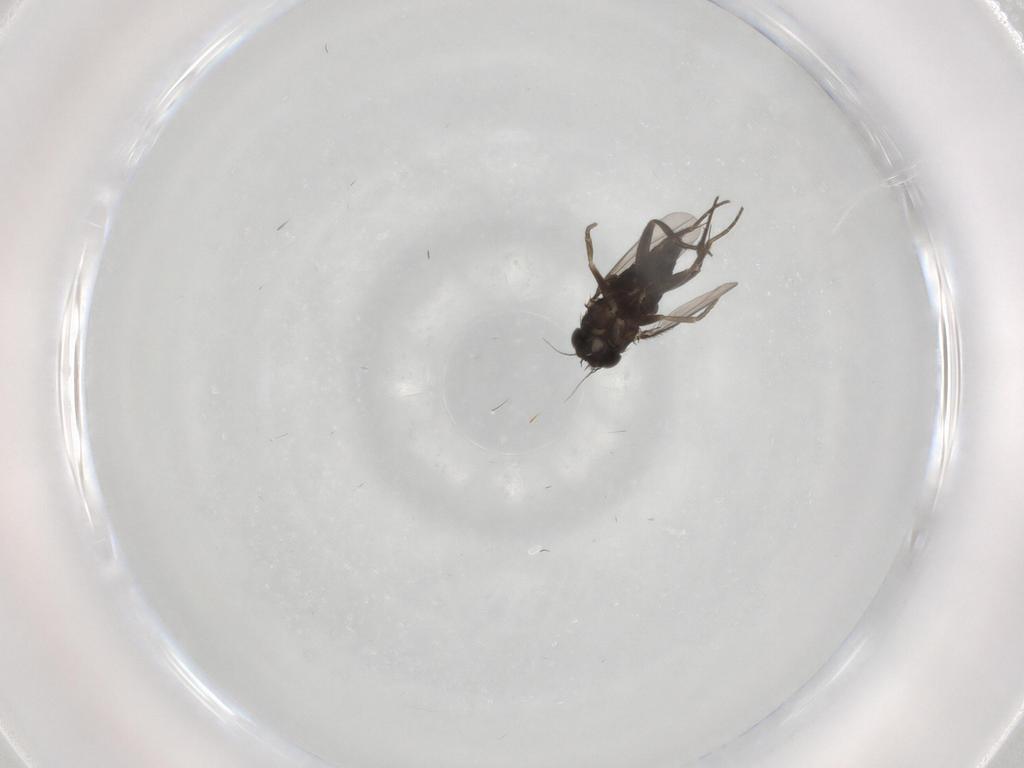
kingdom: Animalia
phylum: Arthropoda
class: Insecta
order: Diptera
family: Phoridae
